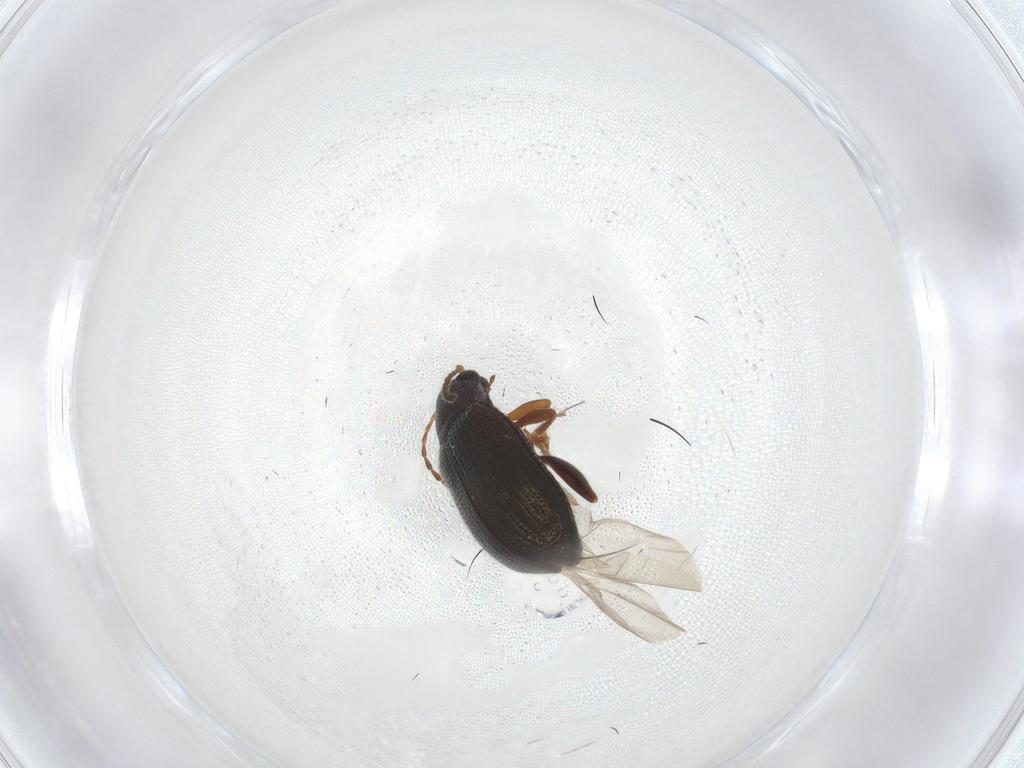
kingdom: Animalia
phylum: Arthropoda
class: Insecta
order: Coleoptera
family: Chrysomelidae
